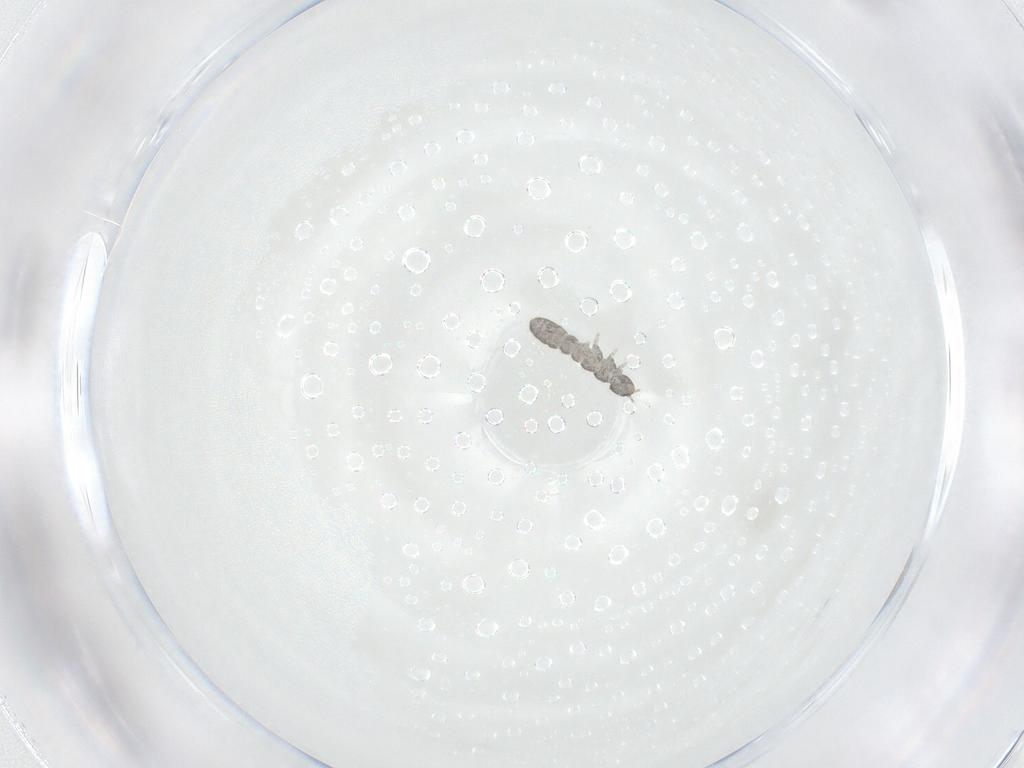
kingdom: Animalia
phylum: Arthropoda
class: Collembola
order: Entomobryomorpha
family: Isotomidae
